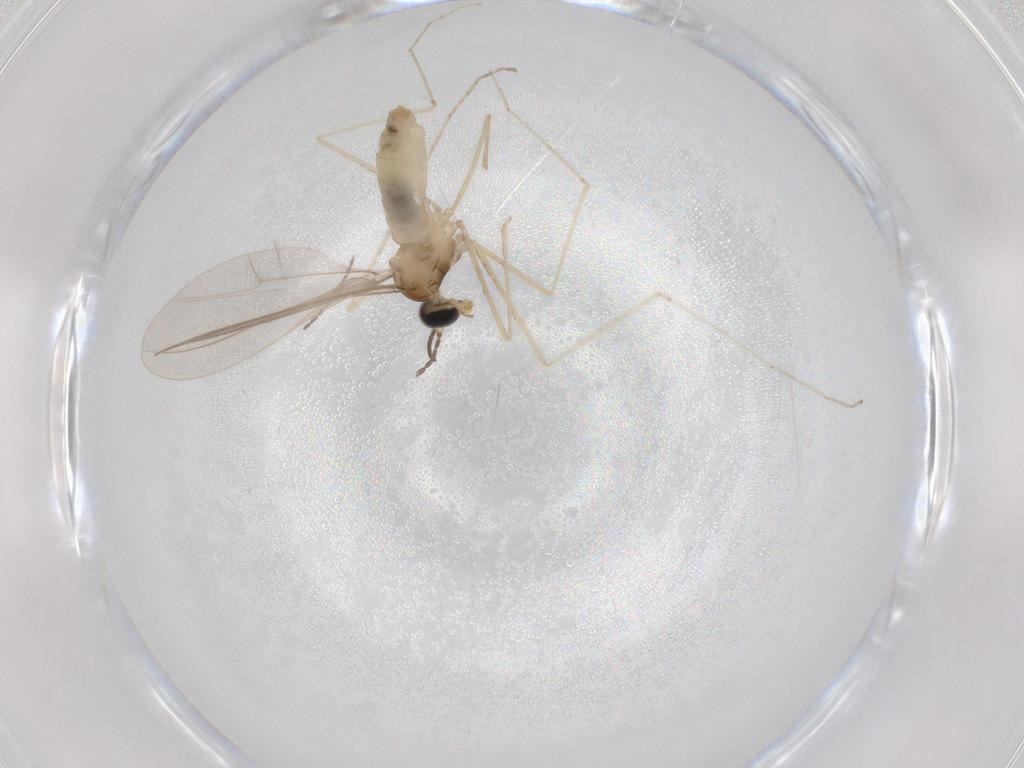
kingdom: Animalia
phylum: Arthropoda
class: Insecta
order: Diptera
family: Cecidomyiidae
